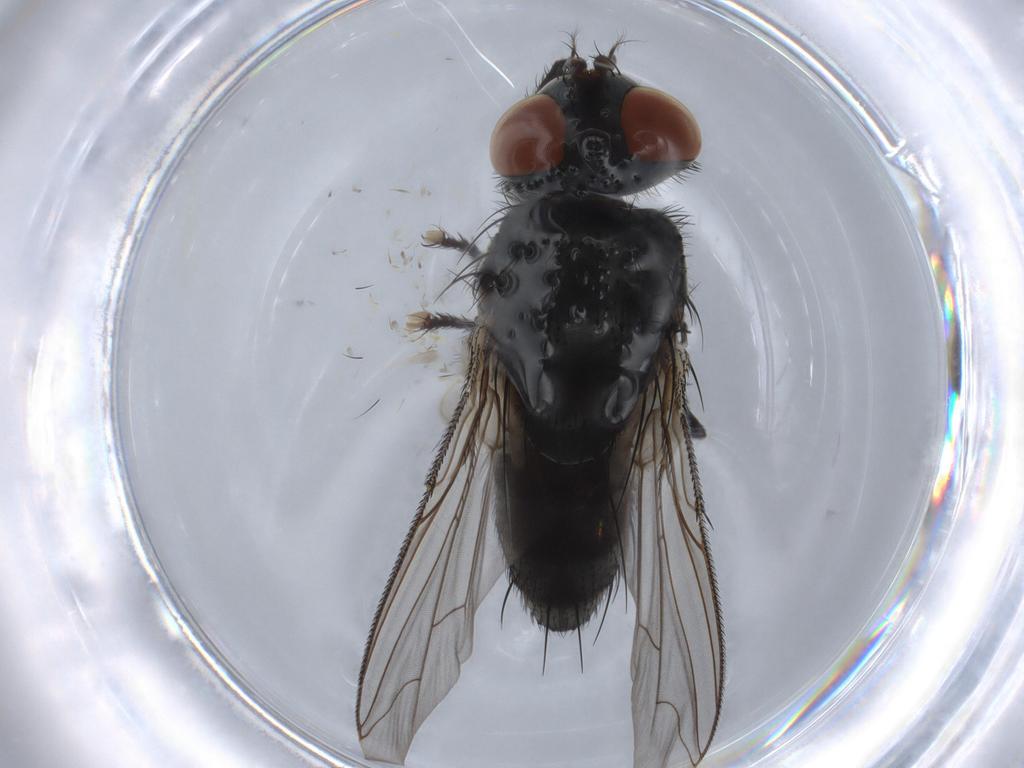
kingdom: Animalia
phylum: Arthropoda
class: Insecta
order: Diptera
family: Sarcophagidae
